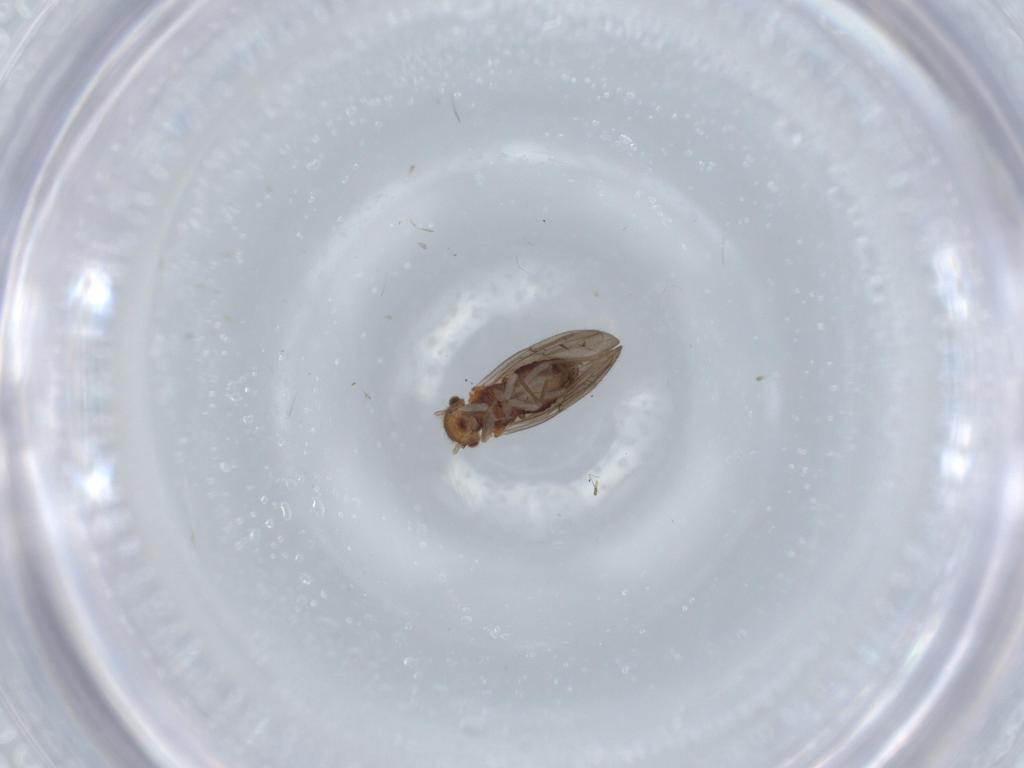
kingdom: Animalia
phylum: Arthropoda
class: Insecta
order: Psocodea
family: Ectopsocidae
